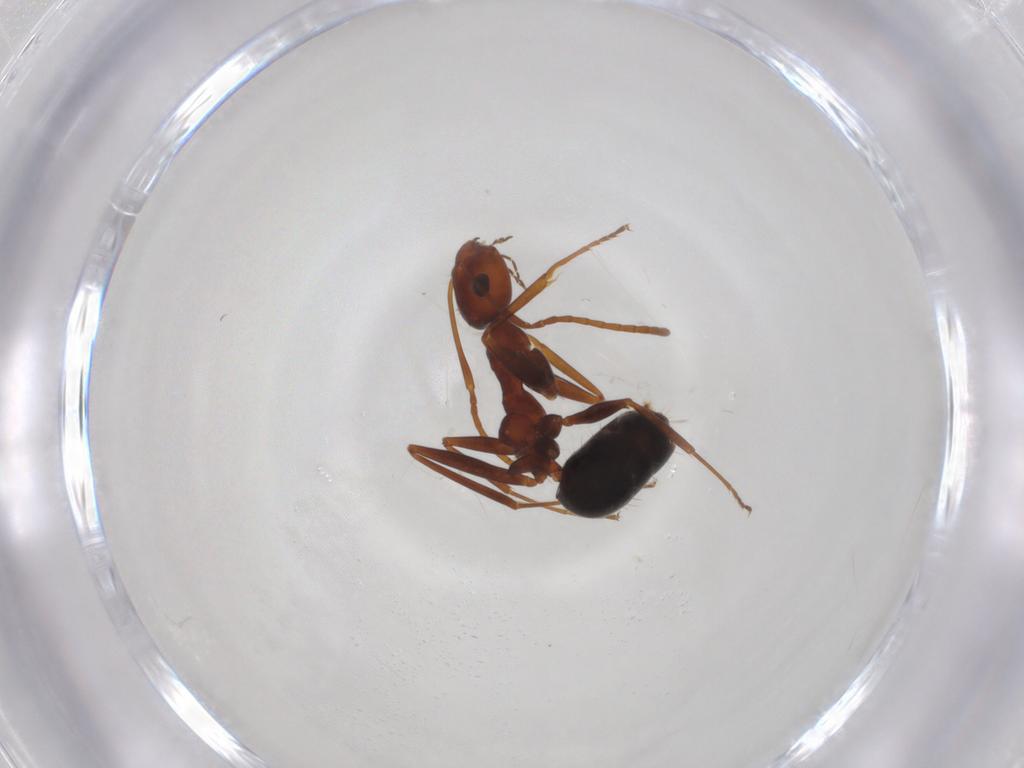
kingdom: Animalia
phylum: Arthropoda
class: Insecta
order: Hymenoptera
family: Formicidae
